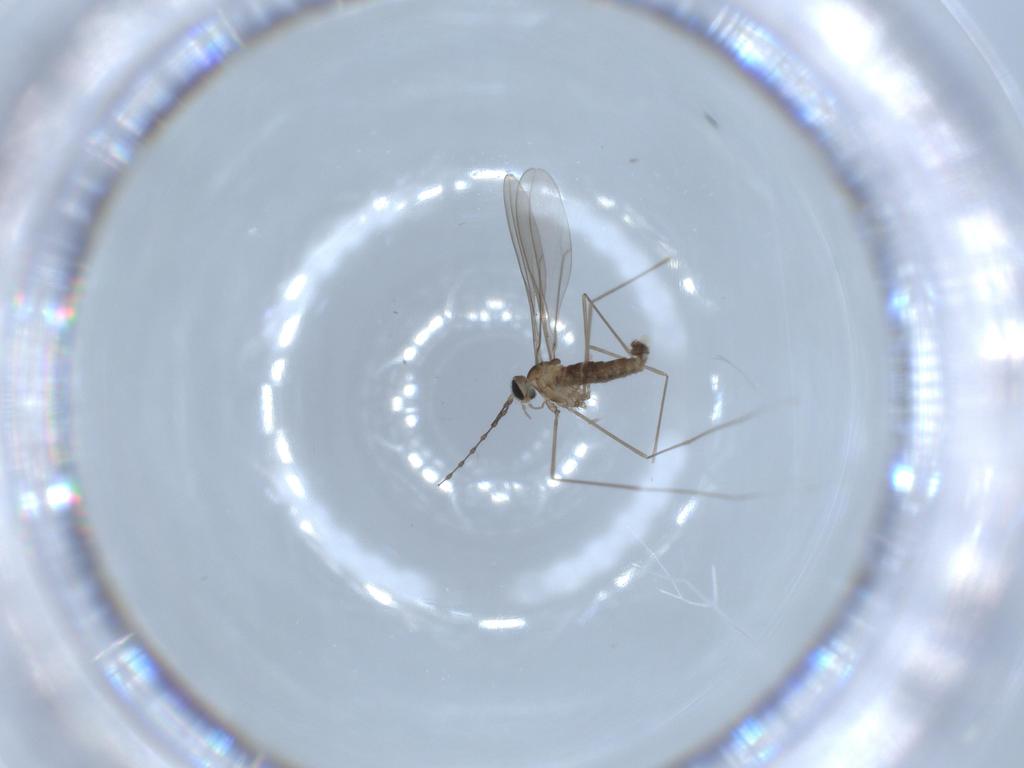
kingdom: Animalia
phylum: Arthropoda
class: Insecta
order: Diptera
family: Cecidomyiidae
